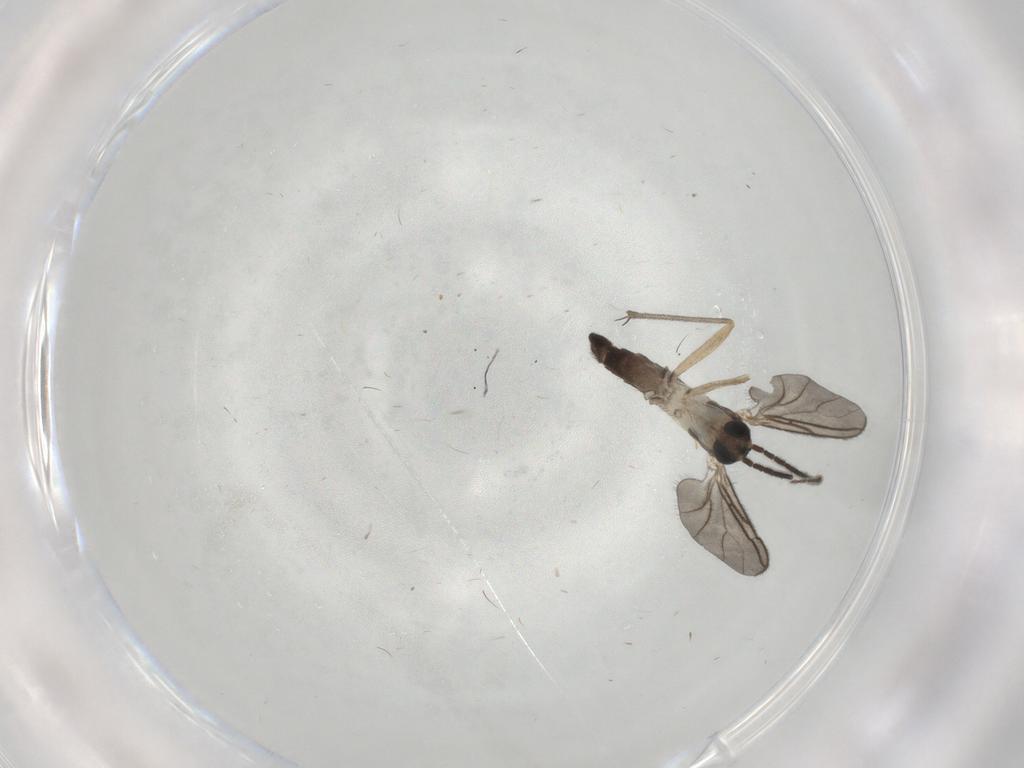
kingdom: Animalia
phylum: Arthropoda
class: Insecta
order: Diptera
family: Sciaridae
